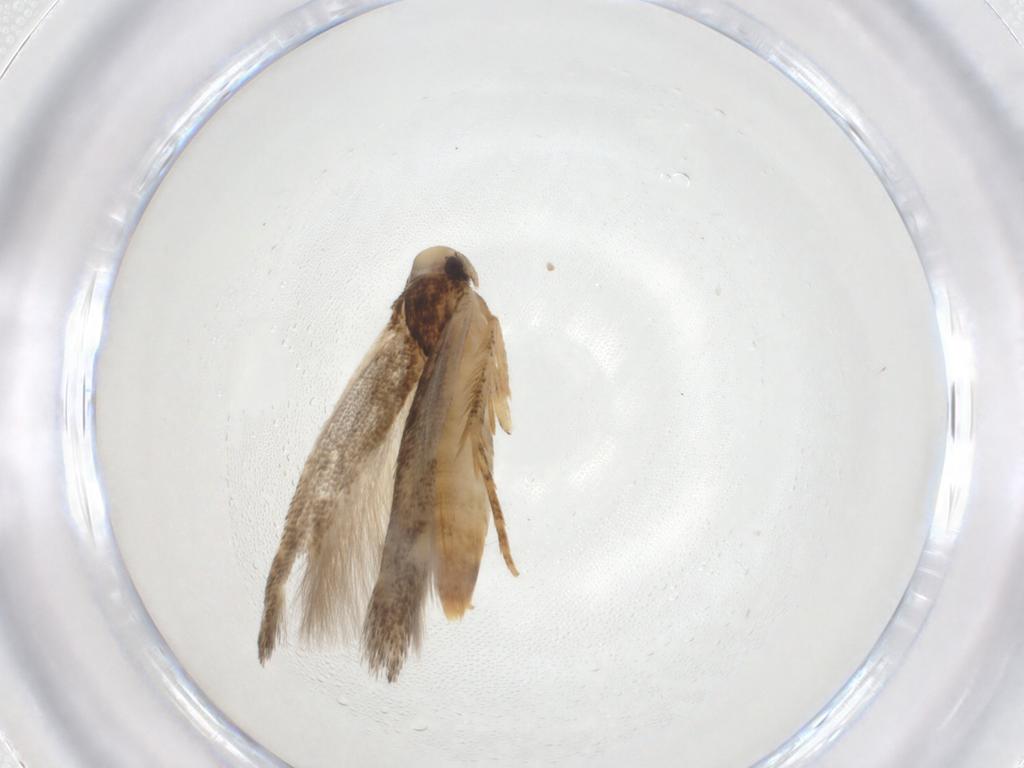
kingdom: Animalia
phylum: Arthropoda
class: Insecta
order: Lepidoptera
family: Cosmopterigidae
